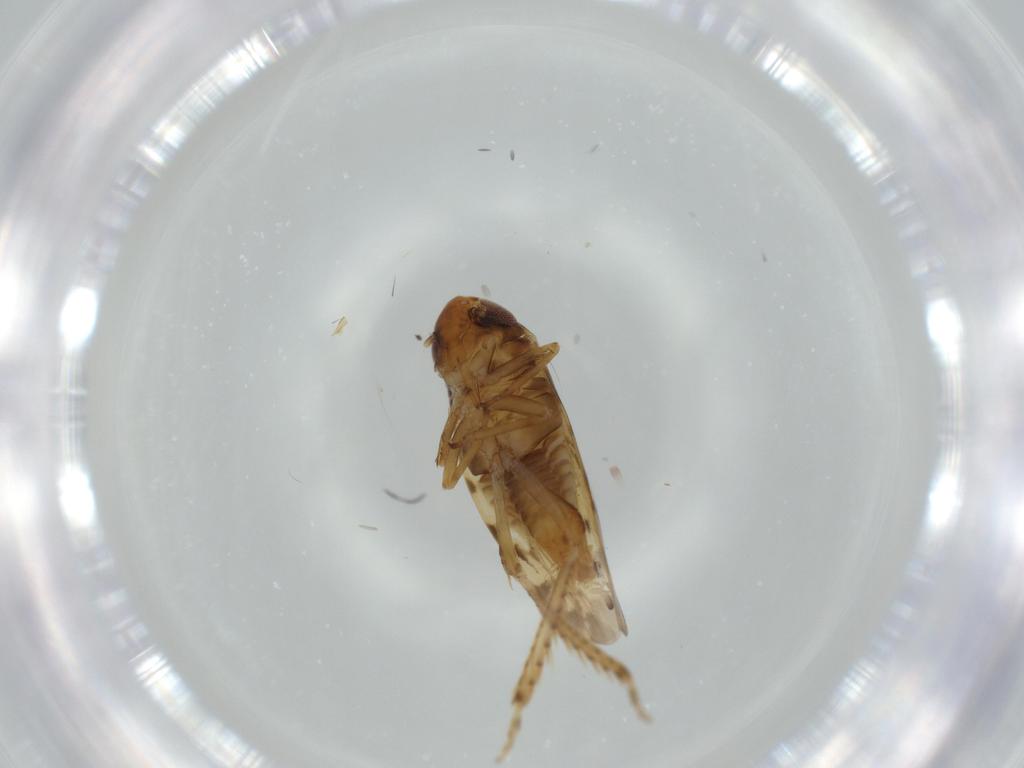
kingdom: Animalia
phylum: Arthropoda
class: Insecta
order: Hemiptera
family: Cicadellidae
